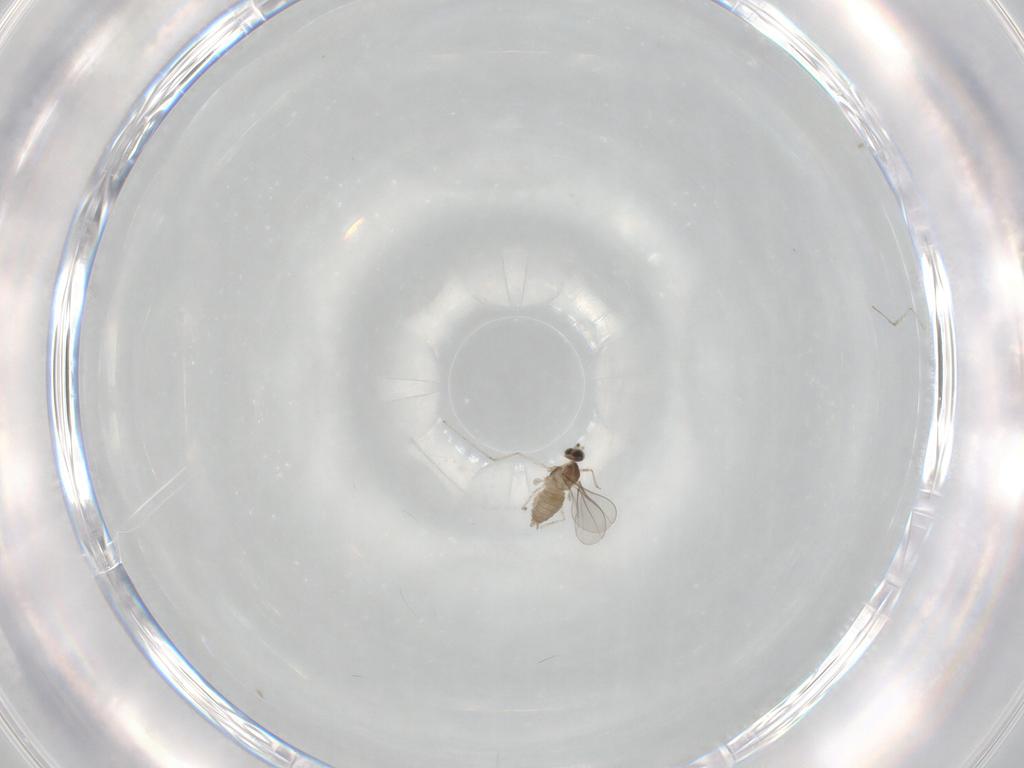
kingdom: Animalia
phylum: Arthropoda
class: Insecta
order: Diptera
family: Cecidomyiidae
